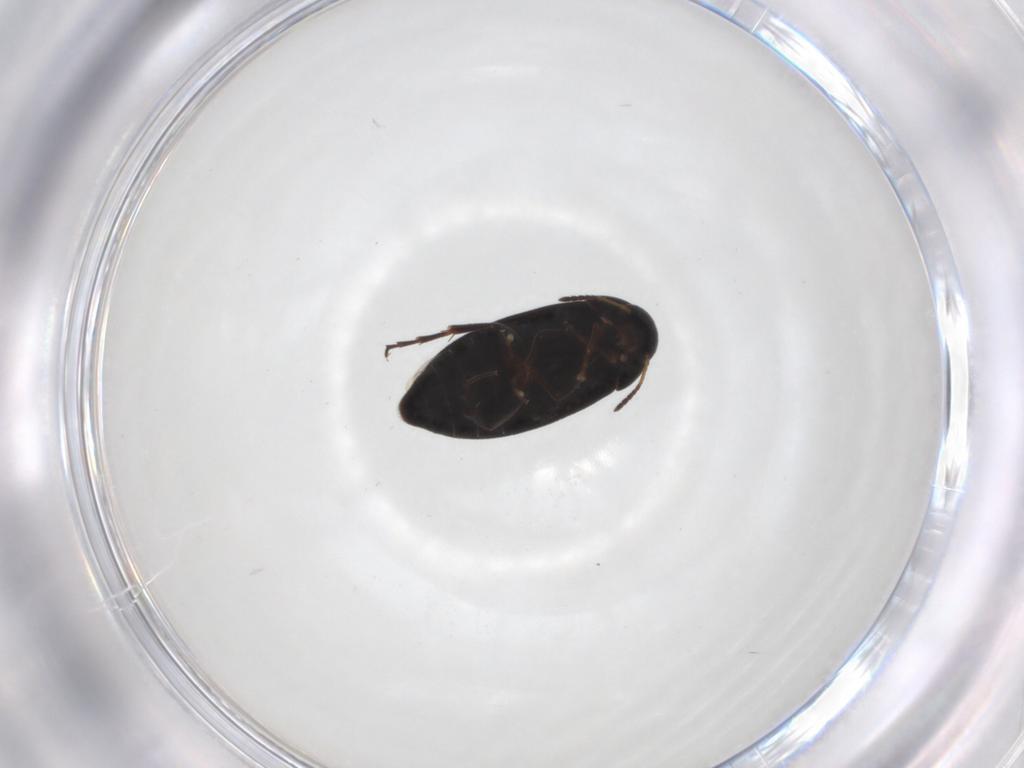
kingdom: Animalia
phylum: Arthropoda
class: Insecta
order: Coleoptera
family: Scraptiidae
